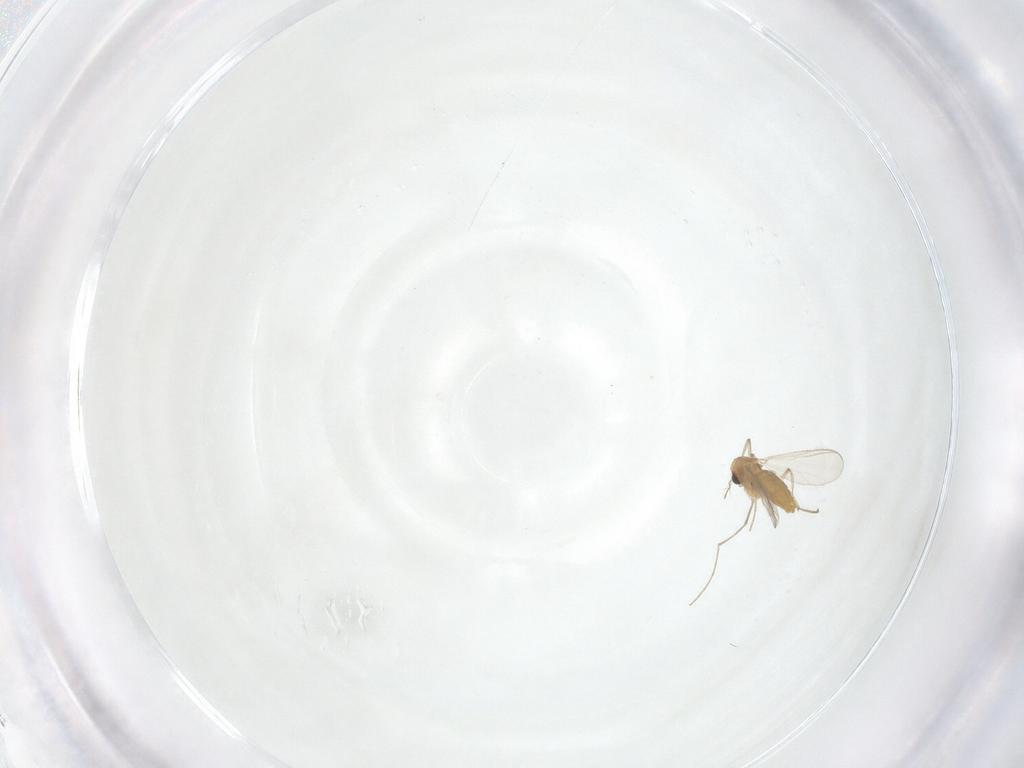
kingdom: Animalia
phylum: Arthropoda
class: Insecta
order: Diptera
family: Chironomidae
